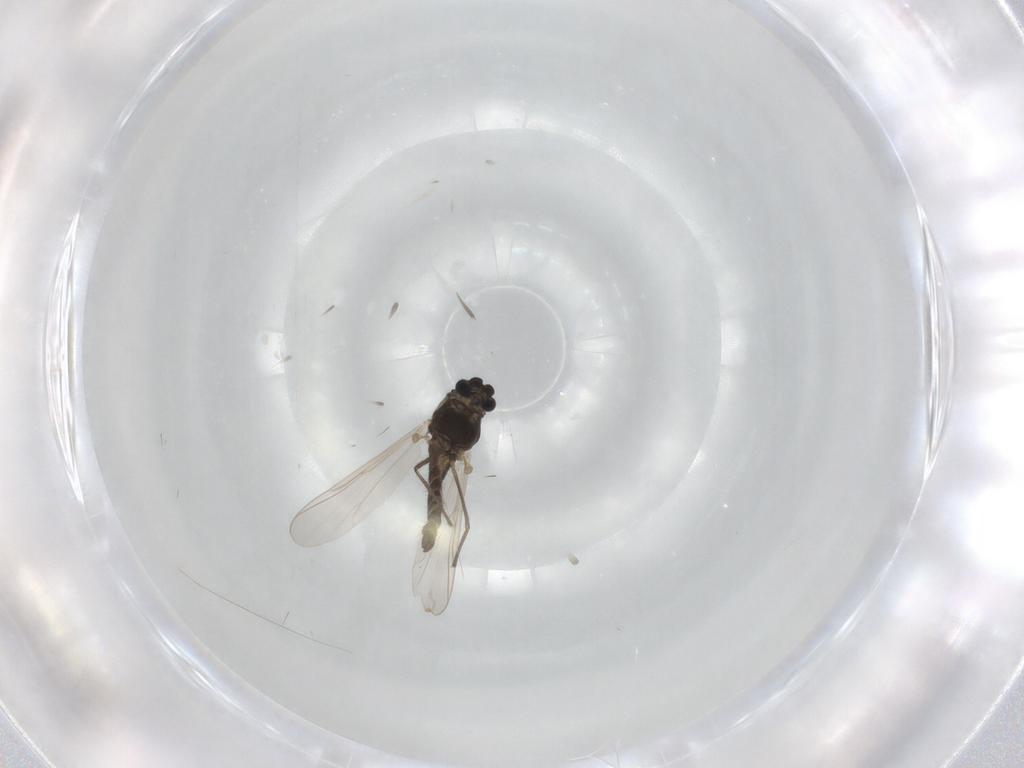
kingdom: Animalia
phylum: Arthropoda
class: Insecta
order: Diptera
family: Chironomidae
